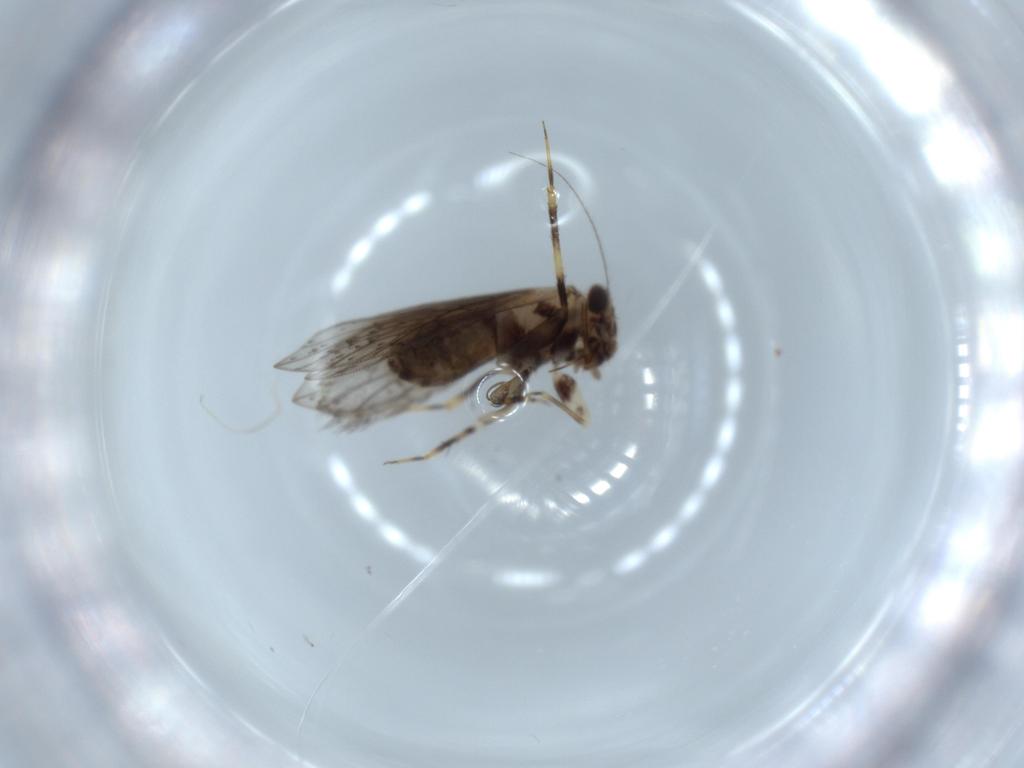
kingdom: Animalia
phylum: Arthropoda
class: Insecta
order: Psocodea
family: Lepidopsocidae
